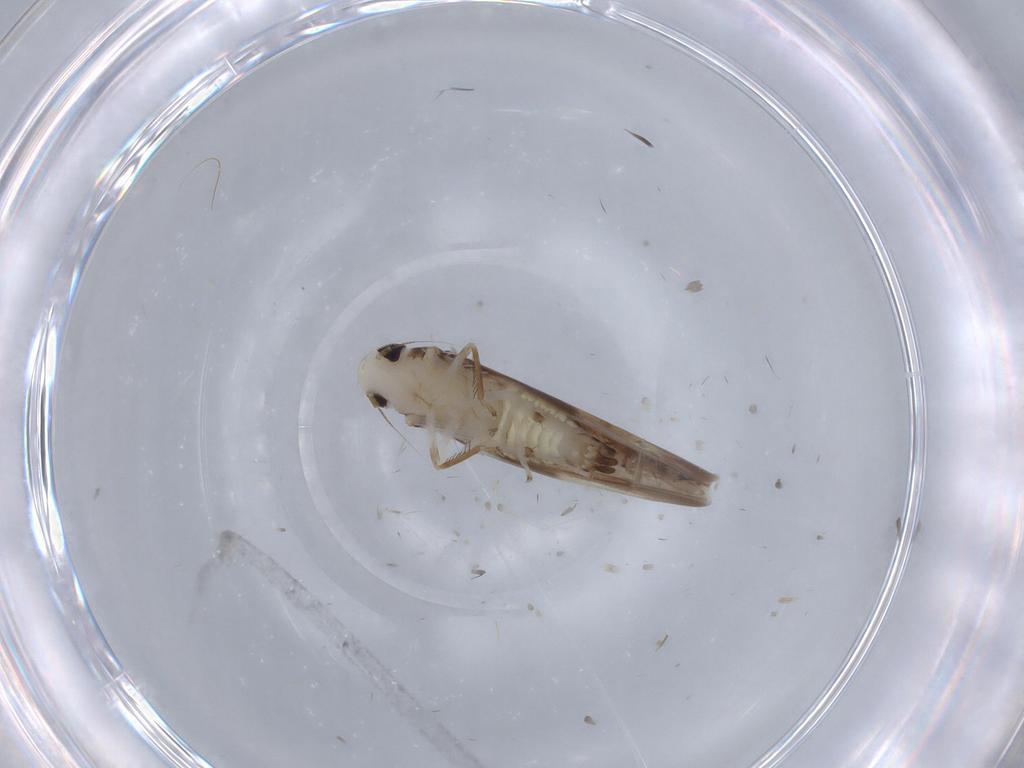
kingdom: Animalia
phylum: Arthropoda
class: Insecta
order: Hemiptera
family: Cicadellidae
